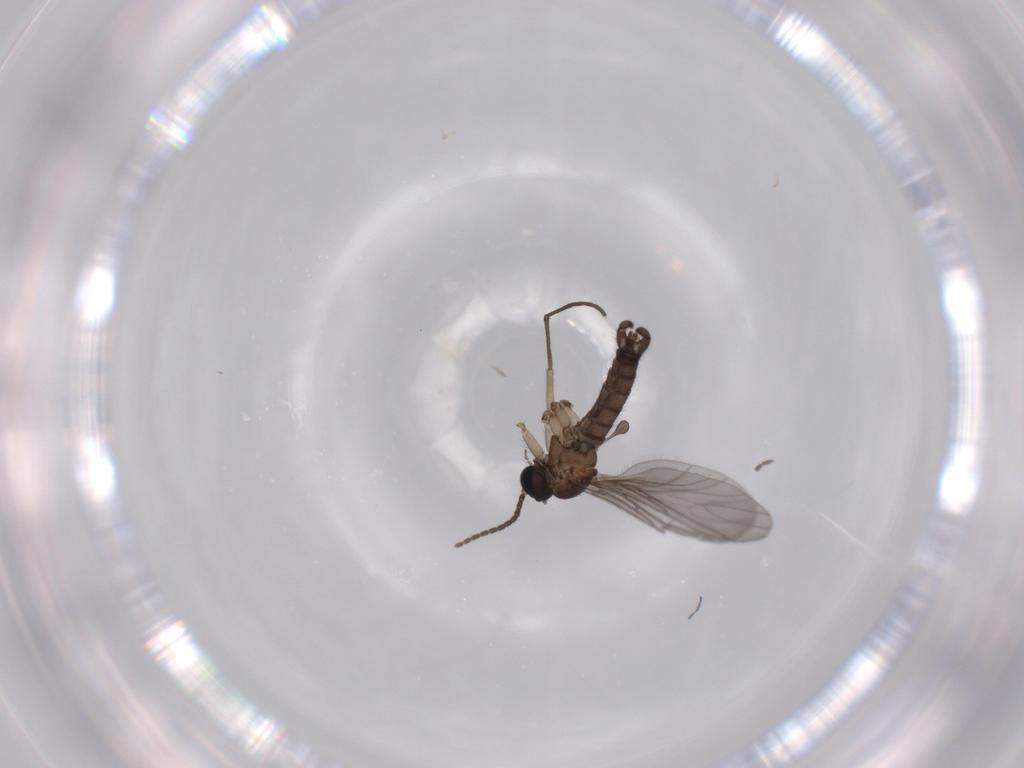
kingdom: Animalia
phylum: Arthropoda
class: Insecta
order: Diptera
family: Sciaridae
